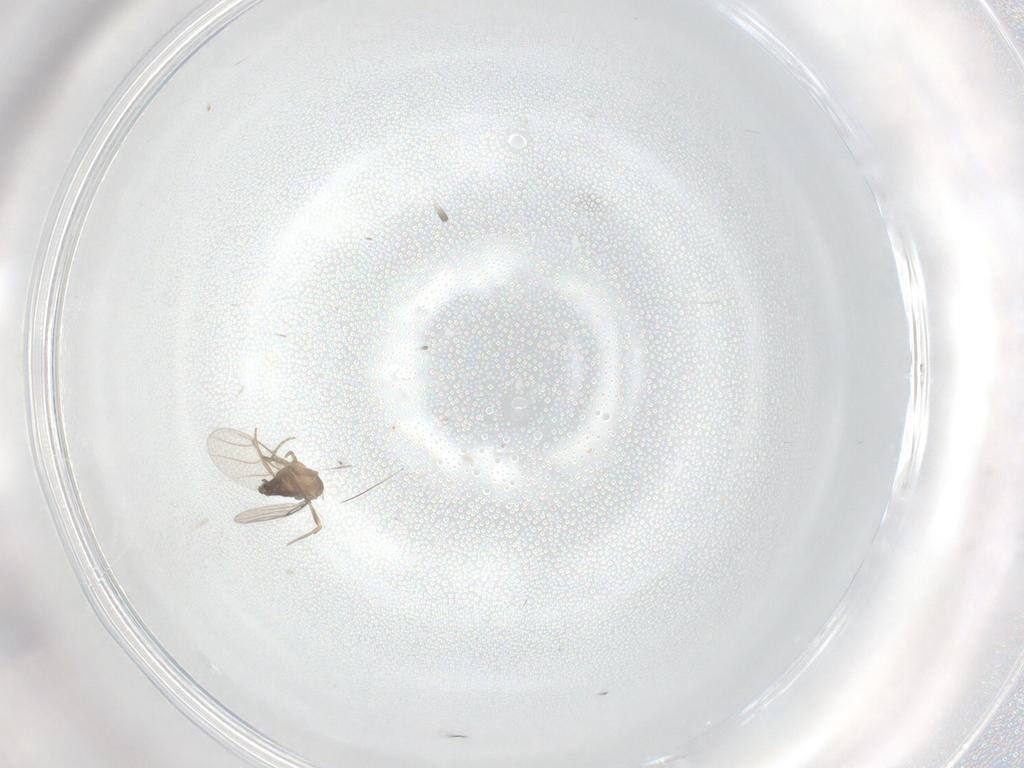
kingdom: Animalia
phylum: Arthropoda
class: Insecta
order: Diptera
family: Phoridae
